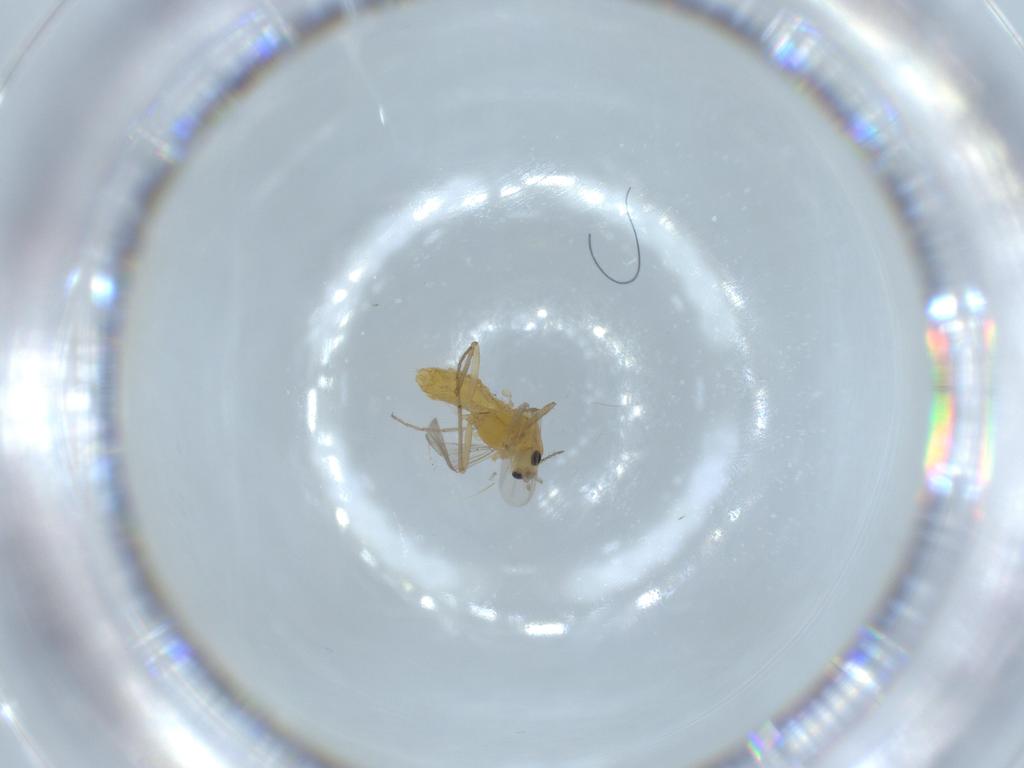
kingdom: Animalia
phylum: Arthropoda
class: Insecta
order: Diptera
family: Chironomidae
